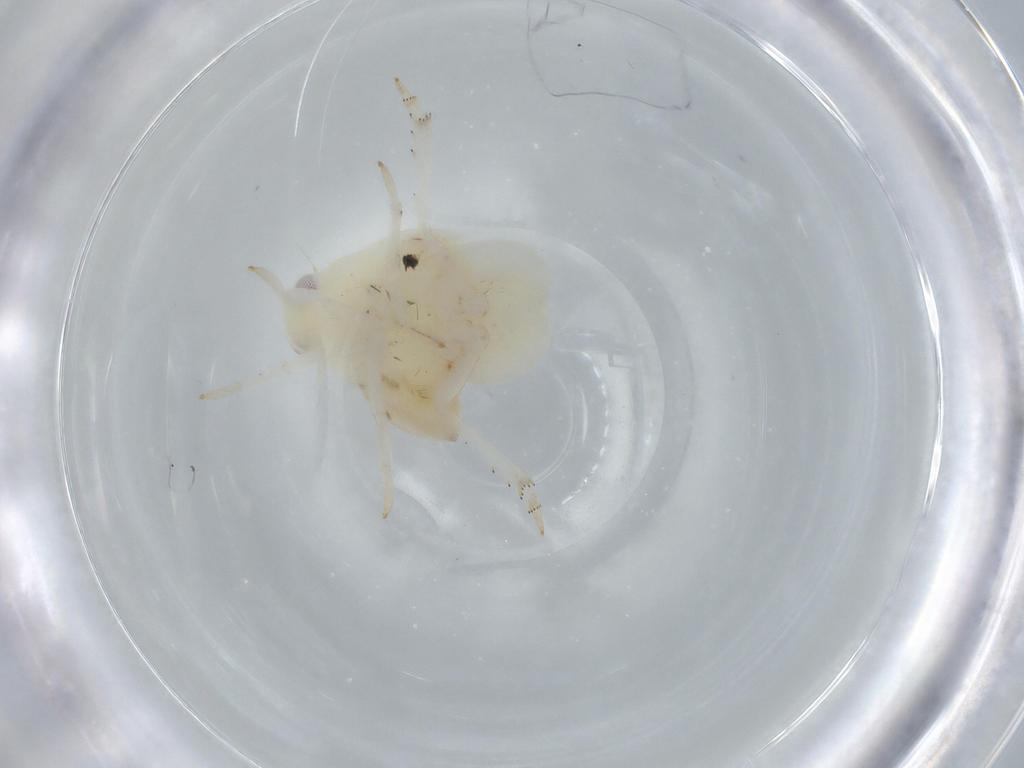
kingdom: Animalia
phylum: Arthropoda
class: Insecta
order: Hemiptera
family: Flatidae
